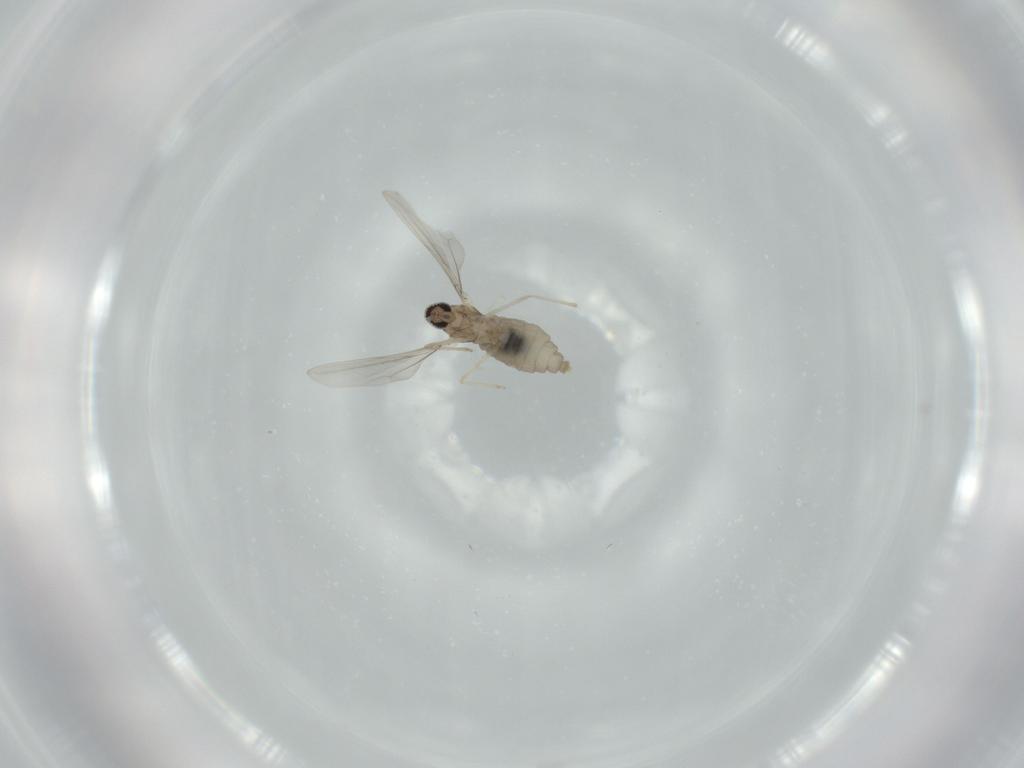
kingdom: Animalia
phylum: Arthropoda
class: Insecta
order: Diptera
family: Cecidomyiidae
